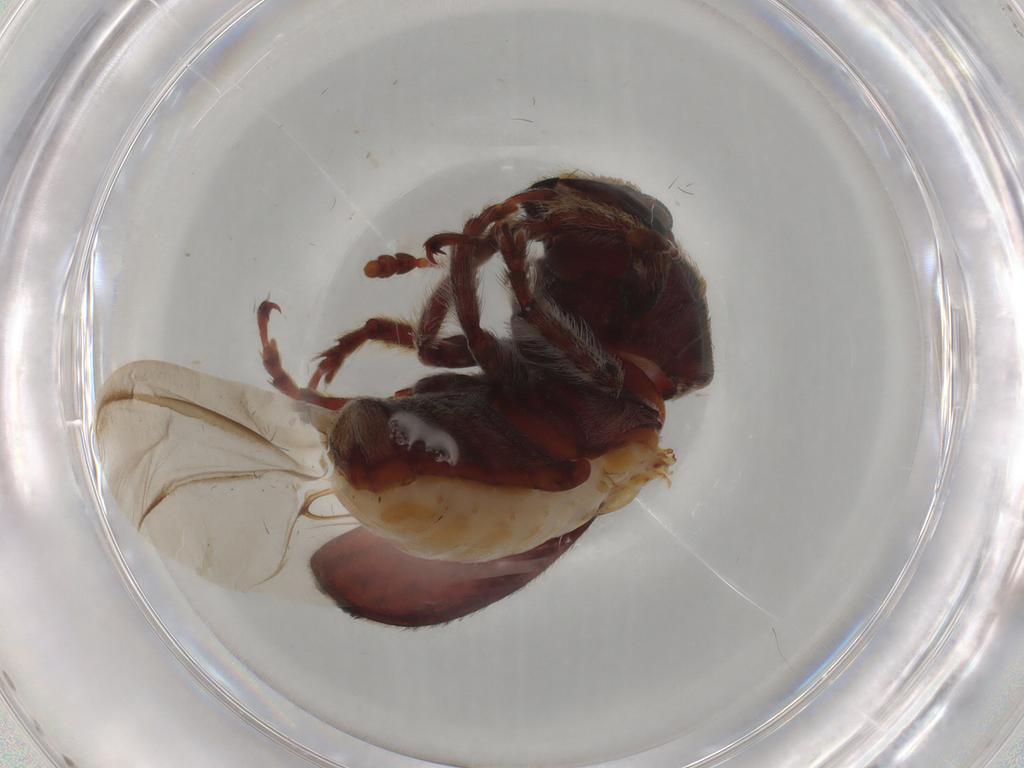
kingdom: Animalia
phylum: Arthropoda
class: Insecta
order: Coleoptera
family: Anthribidae
